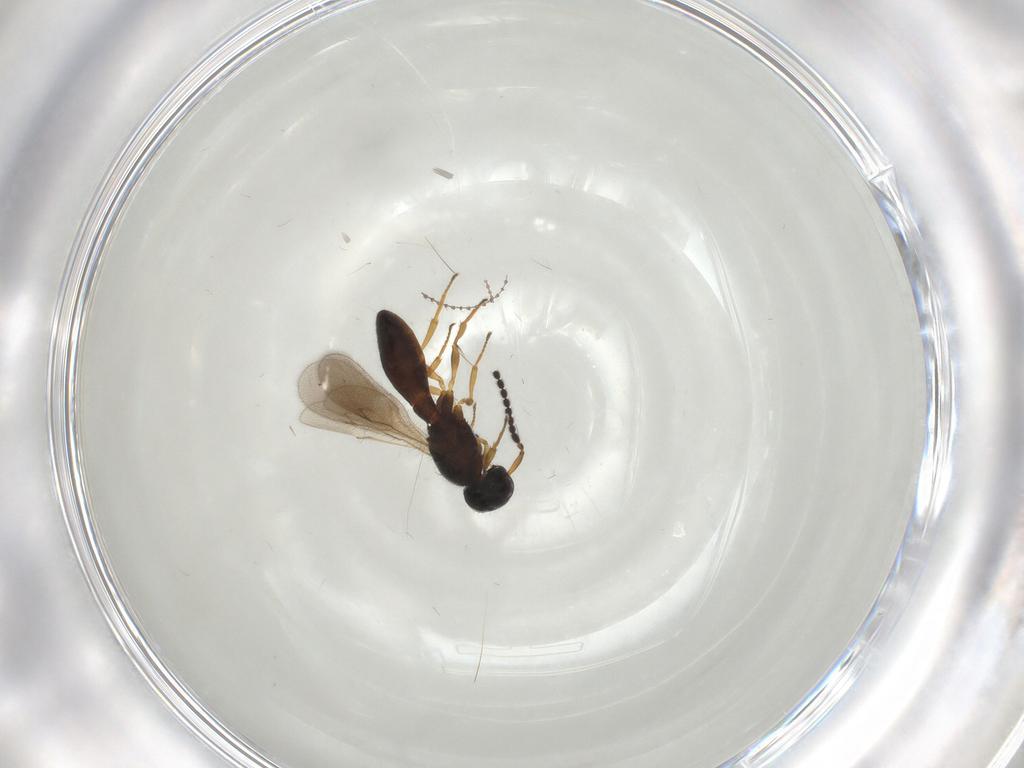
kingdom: Animalia
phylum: Arthropoda
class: Insecta
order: Hymenoptera
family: Scelionidae
